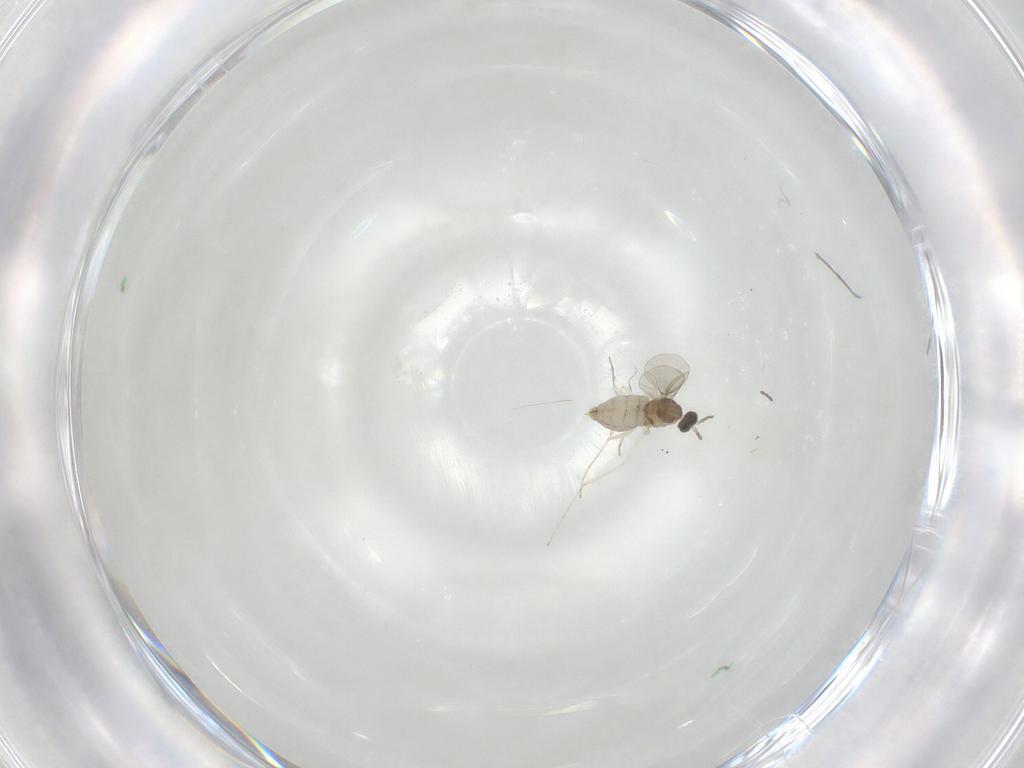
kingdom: Animalia
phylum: Arthropoda
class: Insecta
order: Diptera
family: Cecidomyiidae
